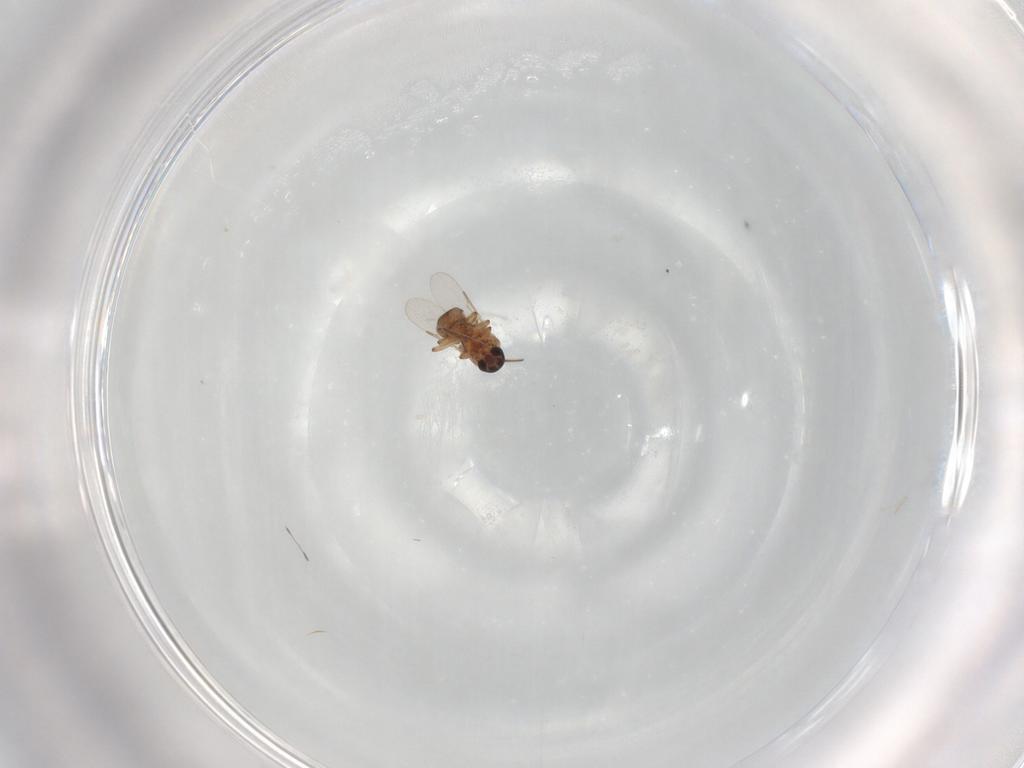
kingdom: Animalia
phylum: Arthropoda
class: Insecta
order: Diptera
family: Ceratopogonidae
